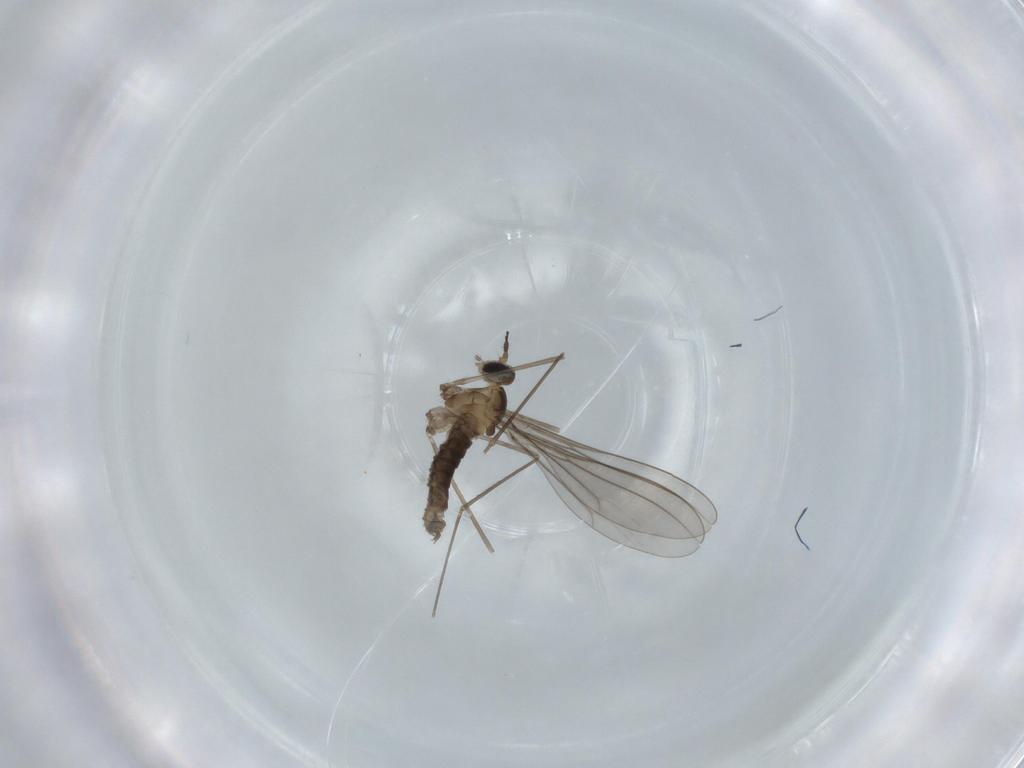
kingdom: Animalia
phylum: Arthropoda
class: Insecta
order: Diptera
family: Cecidomyiidae
